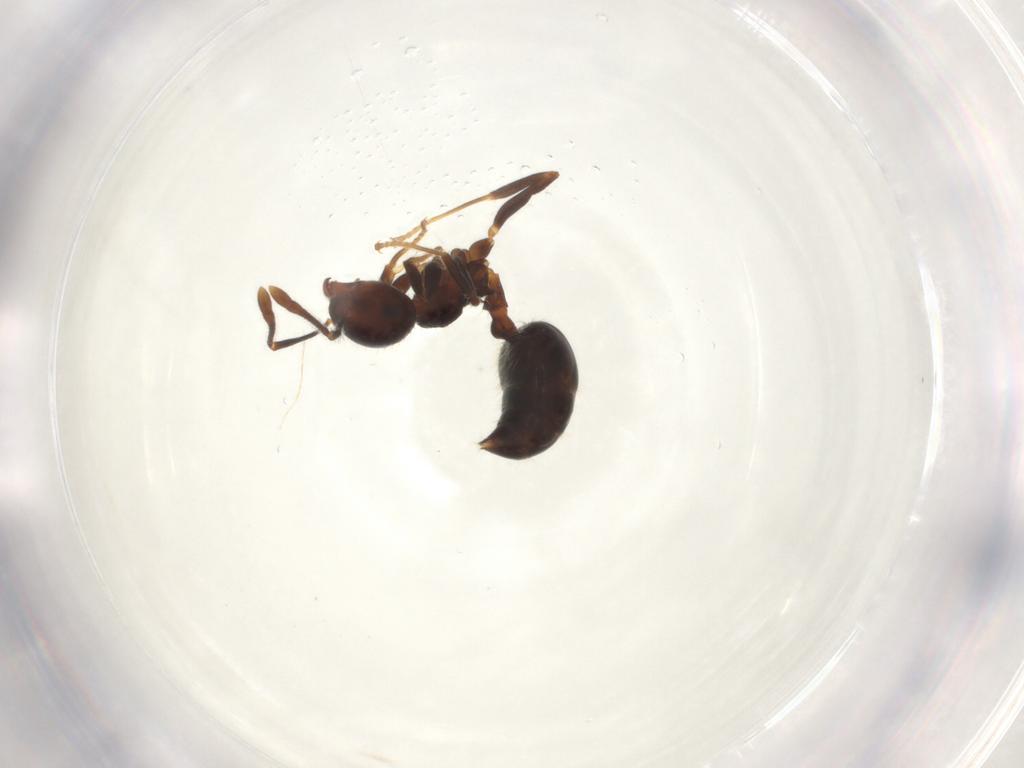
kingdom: Animalia
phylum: Arthropoda
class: Insecta
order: Hymenoptera
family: Formicidae
